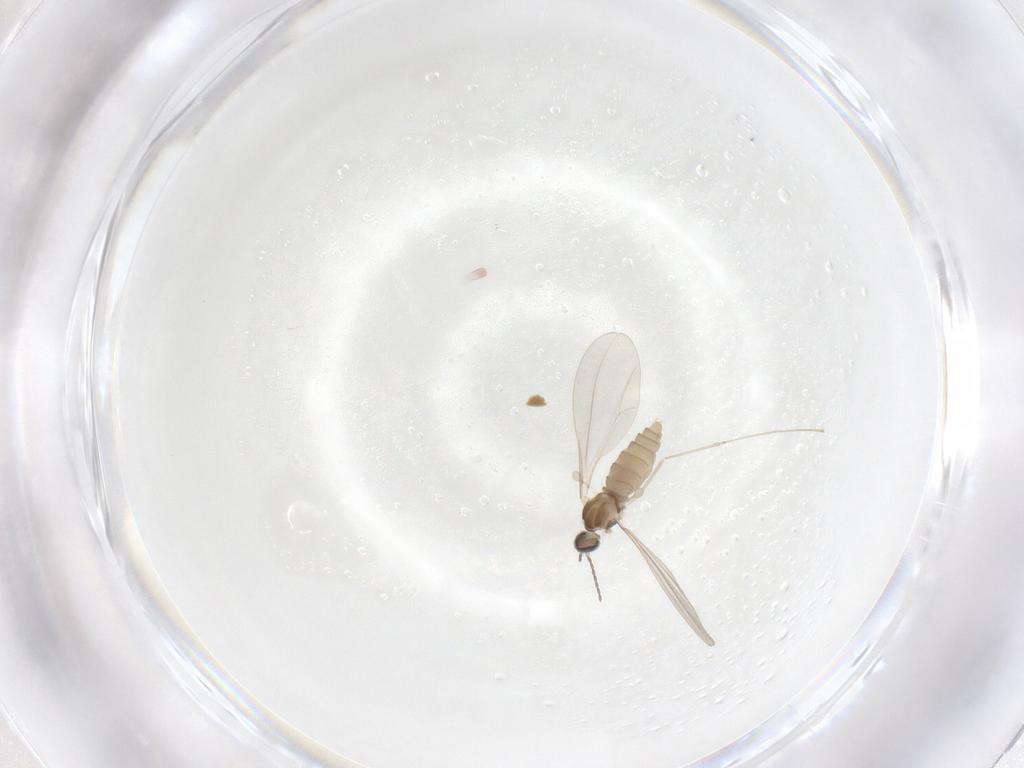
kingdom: Animalia
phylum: Arthropoda
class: Insecta
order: Diptera
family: Cecidomyiidae
